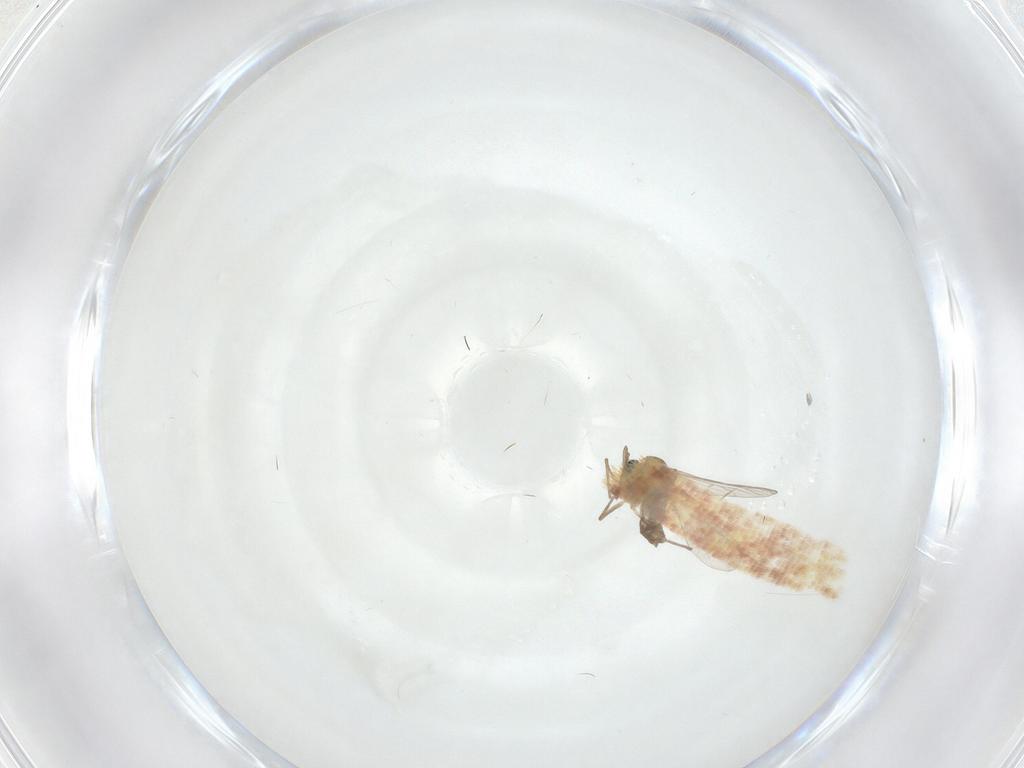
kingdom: Animalia
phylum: Arthropoda
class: Insecta
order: Diptera
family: Chironomidae
